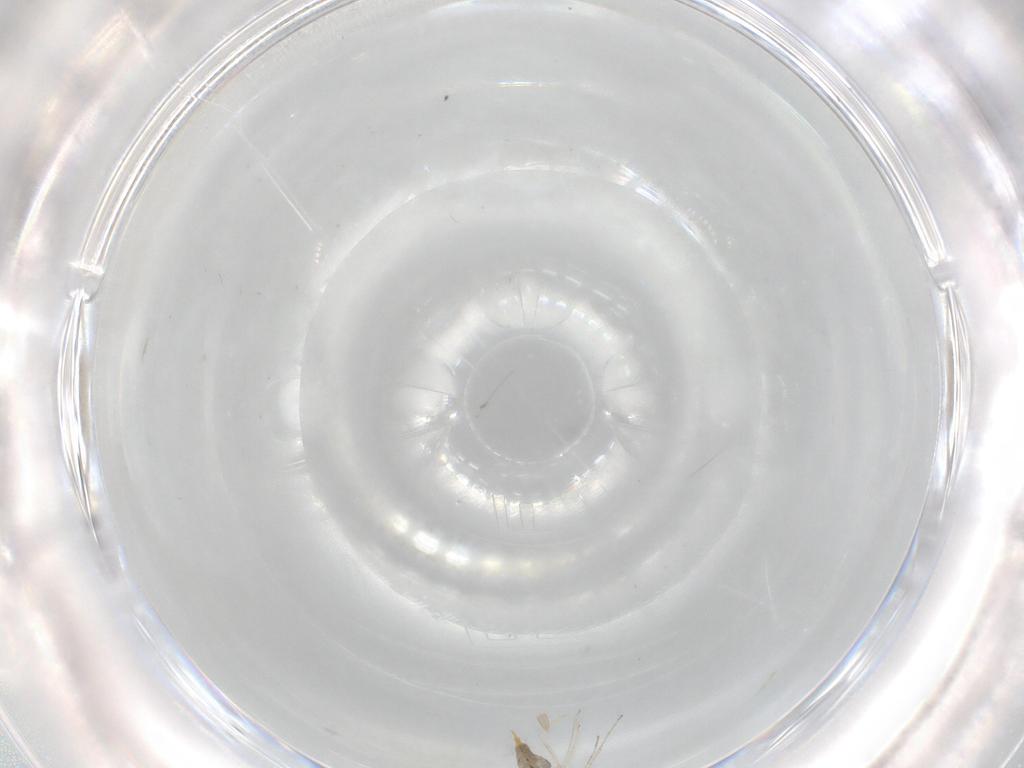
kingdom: Animalia
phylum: Arthropoda
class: Insecta
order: Diptera
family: Cecidomyiidae
